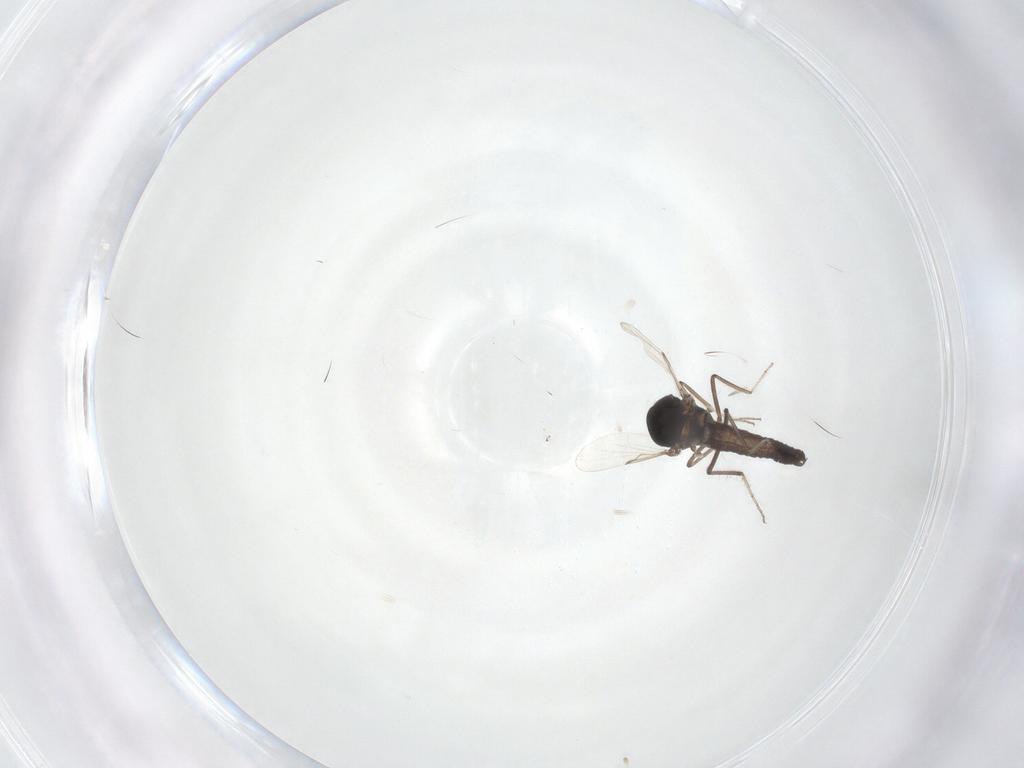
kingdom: Animalia
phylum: Arthropoda
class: Insecta
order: Diptera
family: Ceratopogonidae
